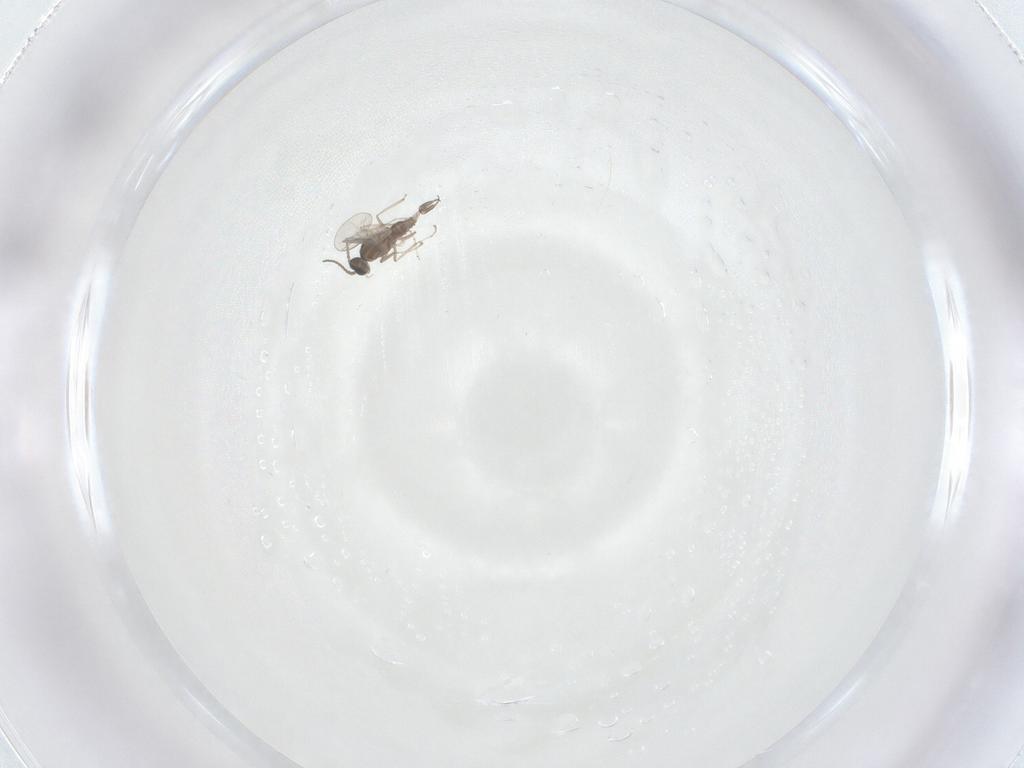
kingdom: Animalia
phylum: Arthropoda
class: Insecta
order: Diptera
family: Cecidomyiidae
